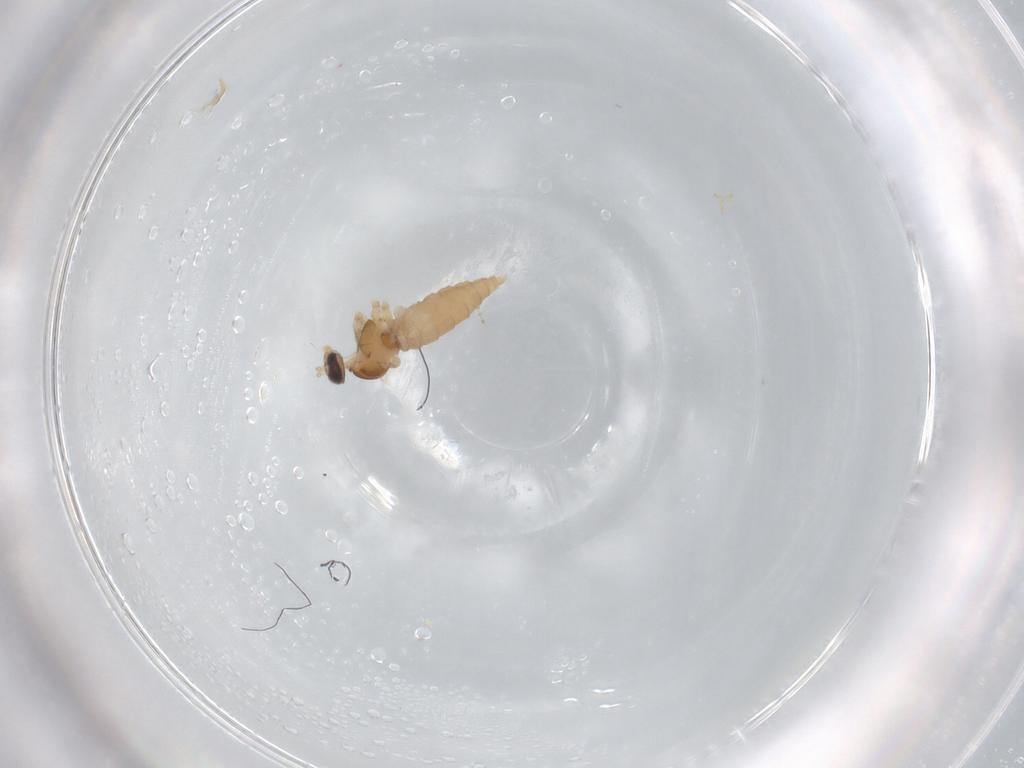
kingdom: Animalia
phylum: Arthropoda
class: Insecta
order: Diptera
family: Cecidomyiidae
